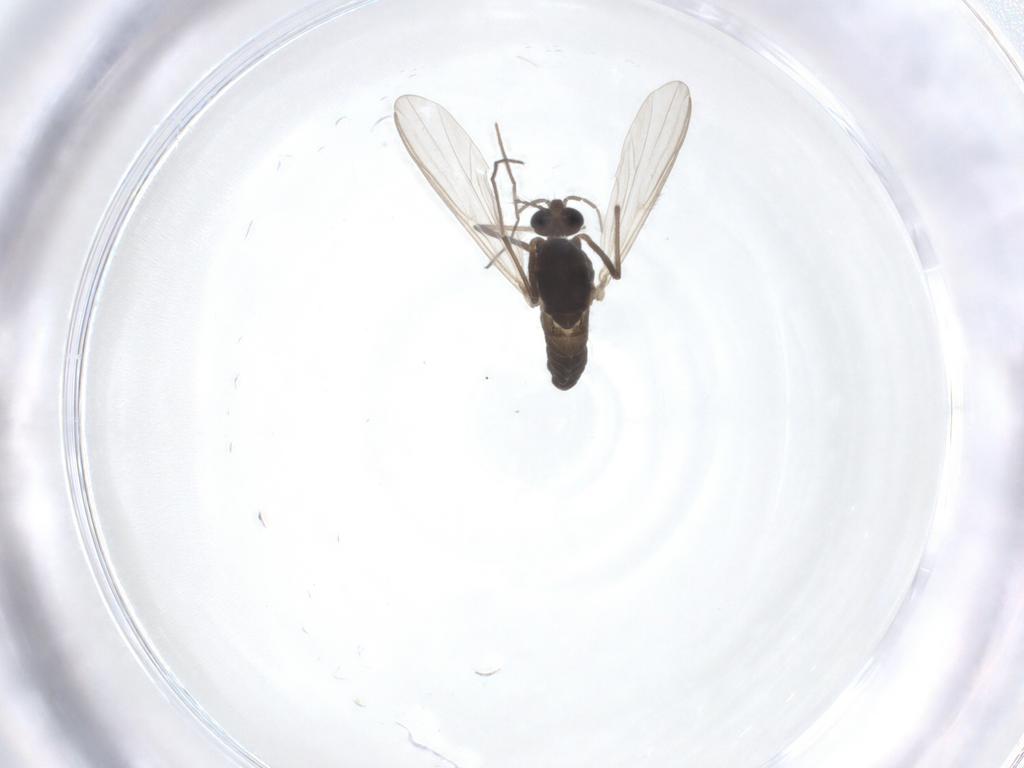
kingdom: Animalia
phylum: Arthropoda
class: Insecta
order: Diptera
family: Chironomidae
